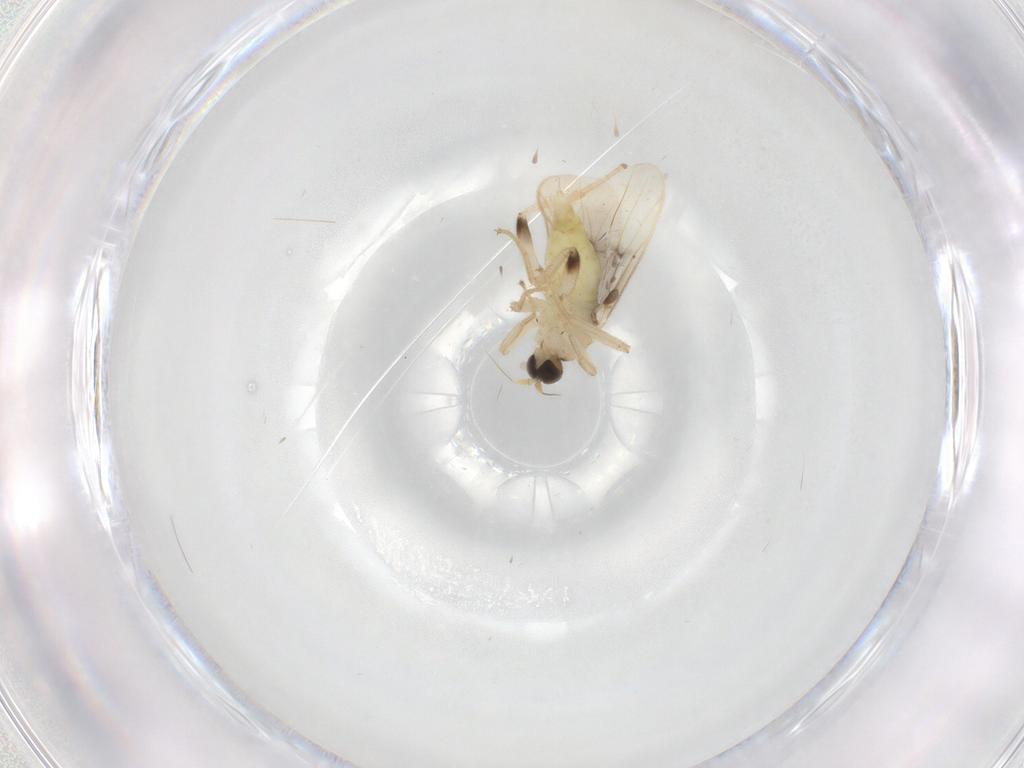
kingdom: Animalia
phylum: Arthropoda
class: Insecta
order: Diptera
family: Hybotidae
